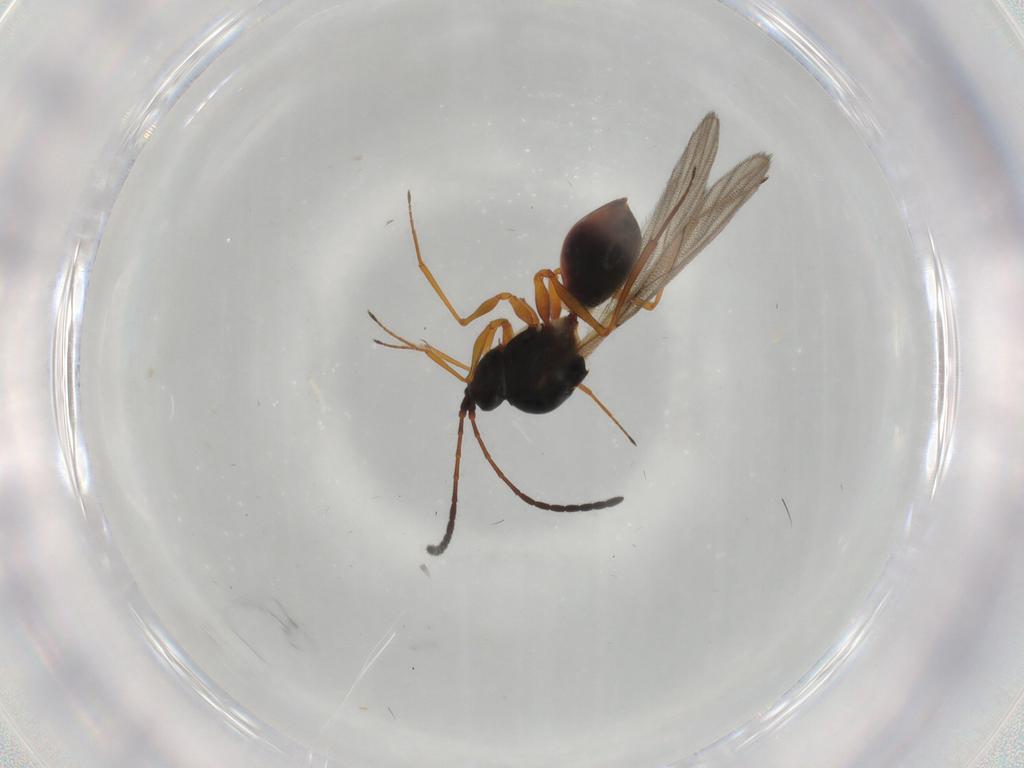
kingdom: Animalia
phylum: Arthropoda
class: Insecta
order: Hymenoptera
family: Figitidae
